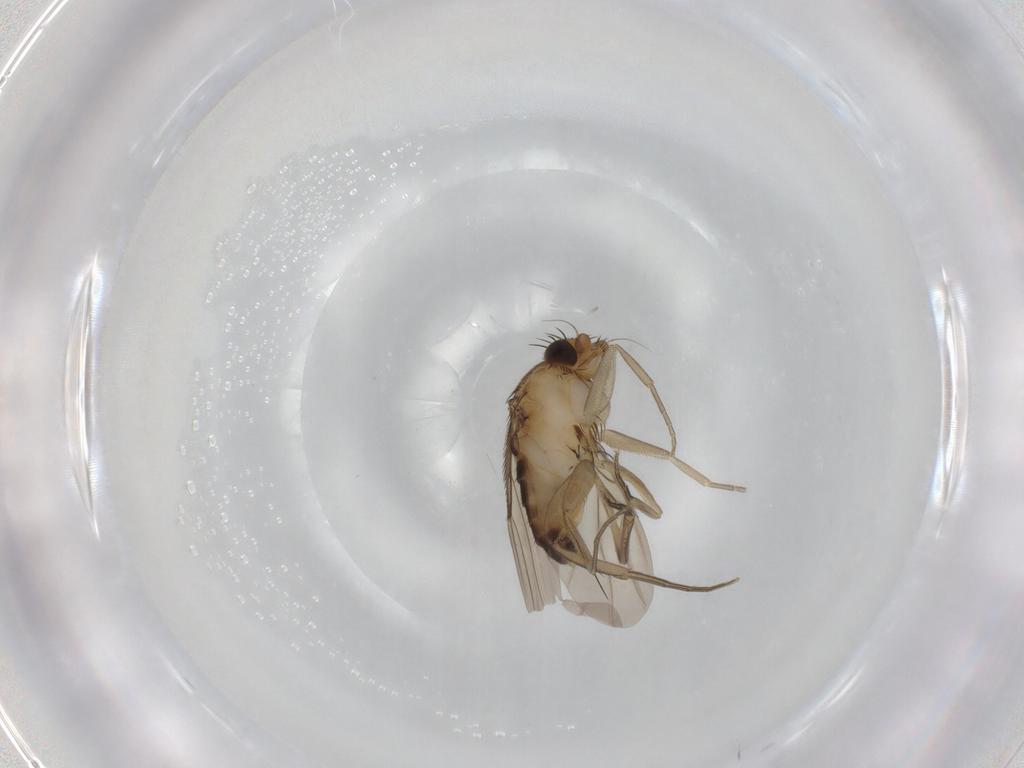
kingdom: Animalia
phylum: Arthropoda
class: Insecta
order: Diptera
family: Phoridae
